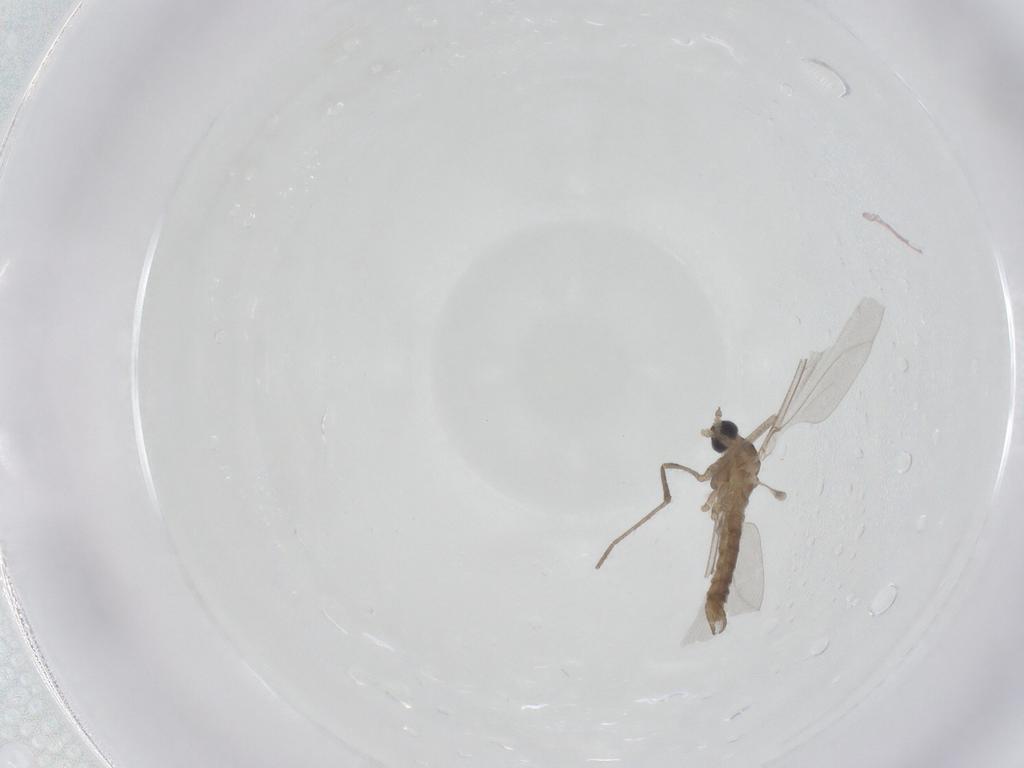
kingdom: Animalia
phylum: Arthropoda
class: Insecta
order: Diptera
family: Cecidomyiidae
